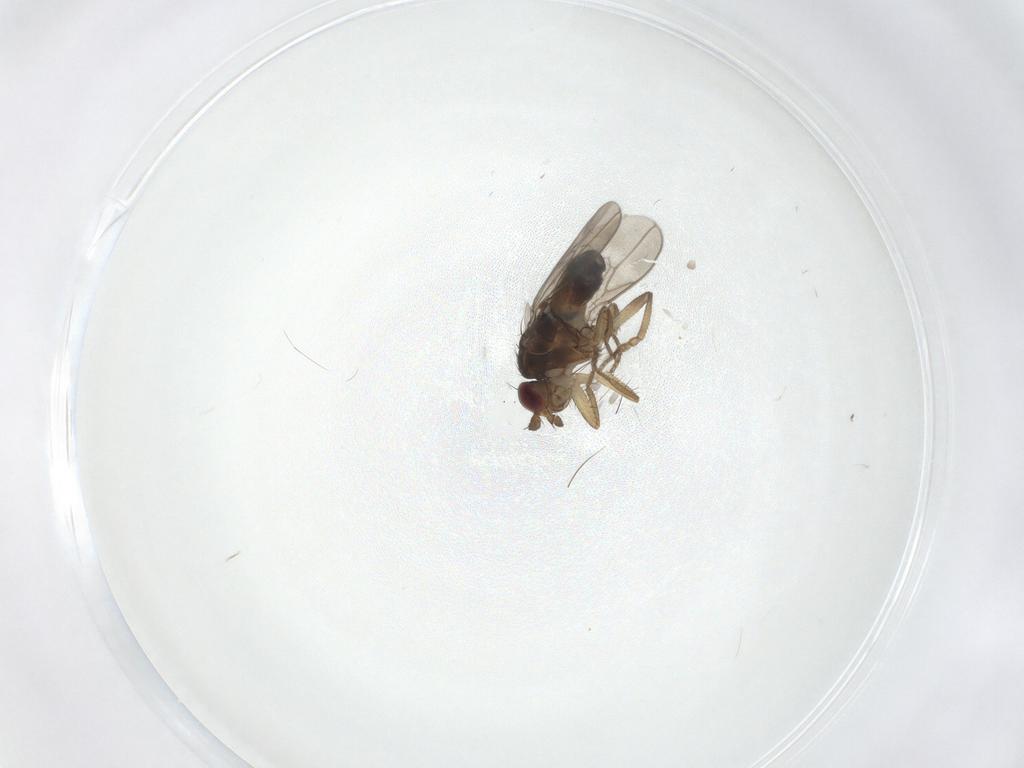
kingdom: Animalia
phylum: Arthropoda
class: Insecta
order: Diptera
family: Sphaeroceridae
